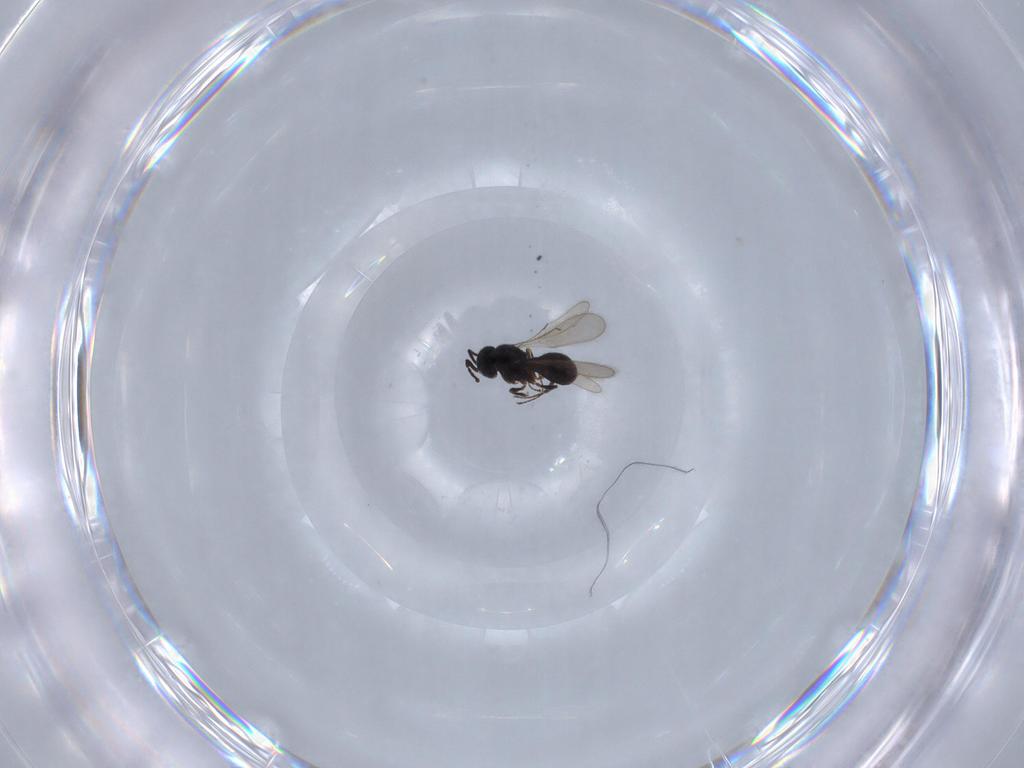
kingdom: Animalia
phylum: Arthropoda
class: Insecta
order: Hymenoptera
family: Scelionidae
